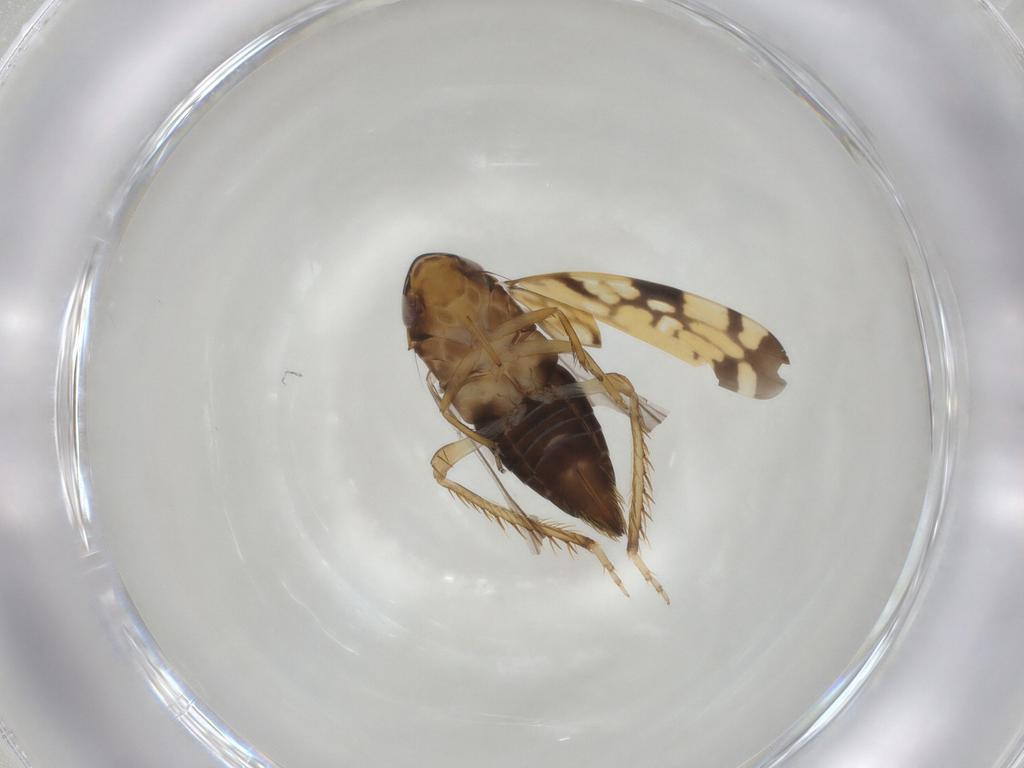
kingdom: Animalia
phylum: Arthropoda
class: Insecta
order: Hemiptera
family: Cicadellidae
